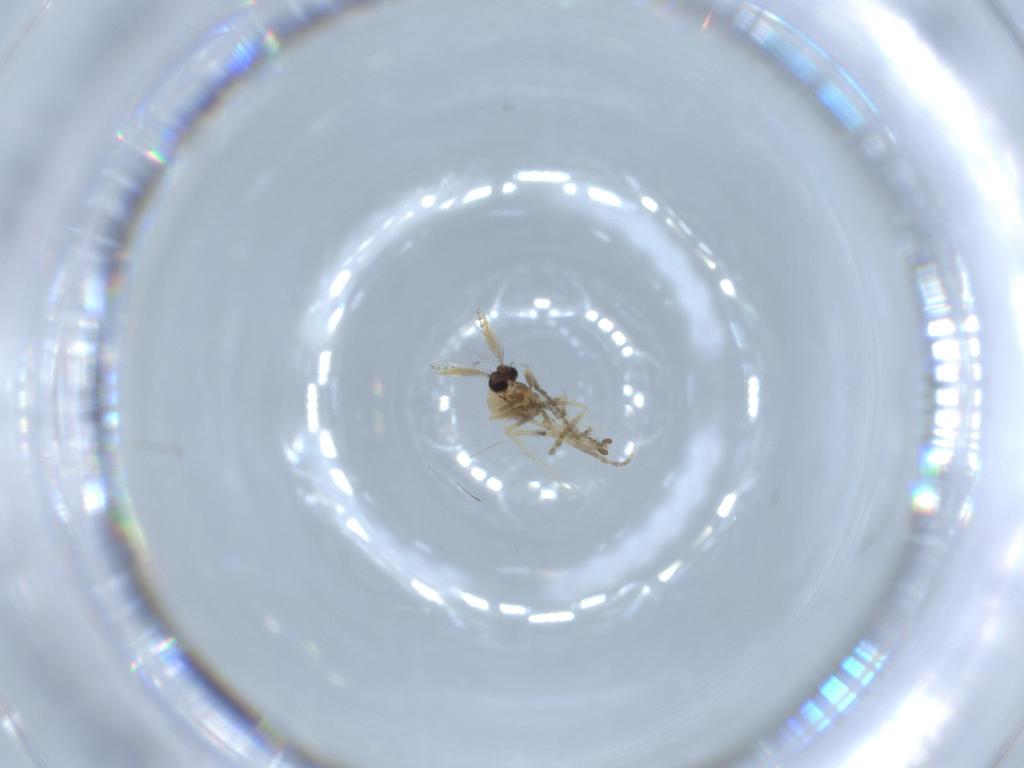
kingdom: Animalia
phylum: Arthropoda
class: Insecta
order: Diptera
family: Ceratopogonidae
